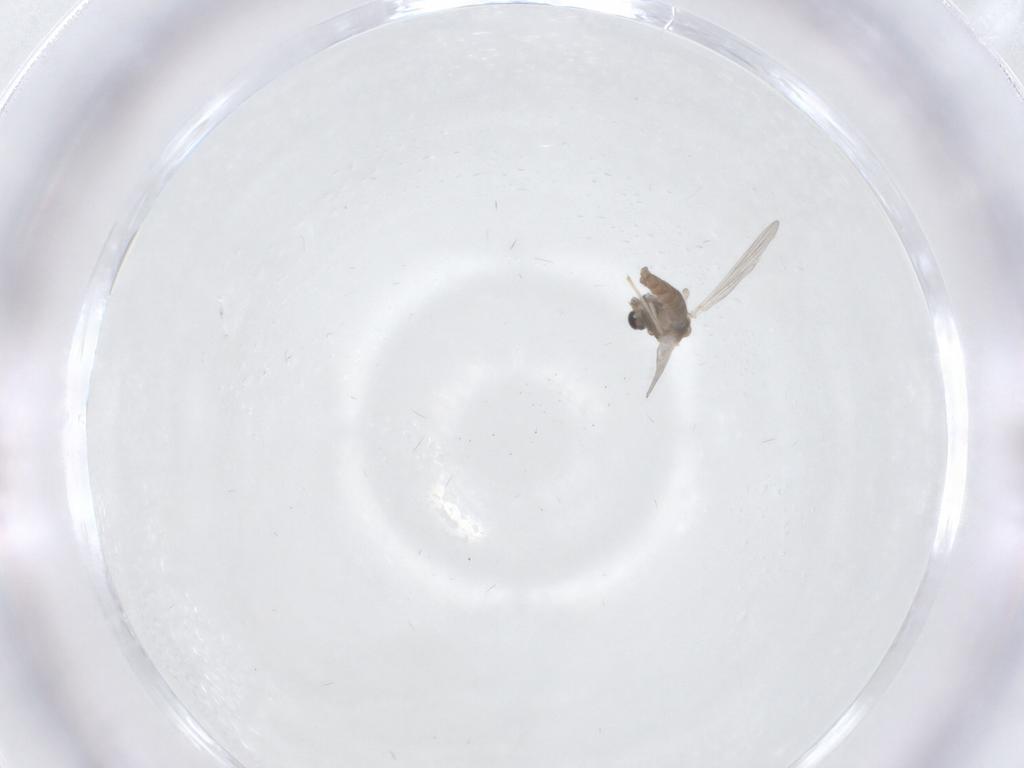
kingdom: Animalia
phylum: Arthropoda
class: Insecta
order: Diptera
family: Chironomidae
